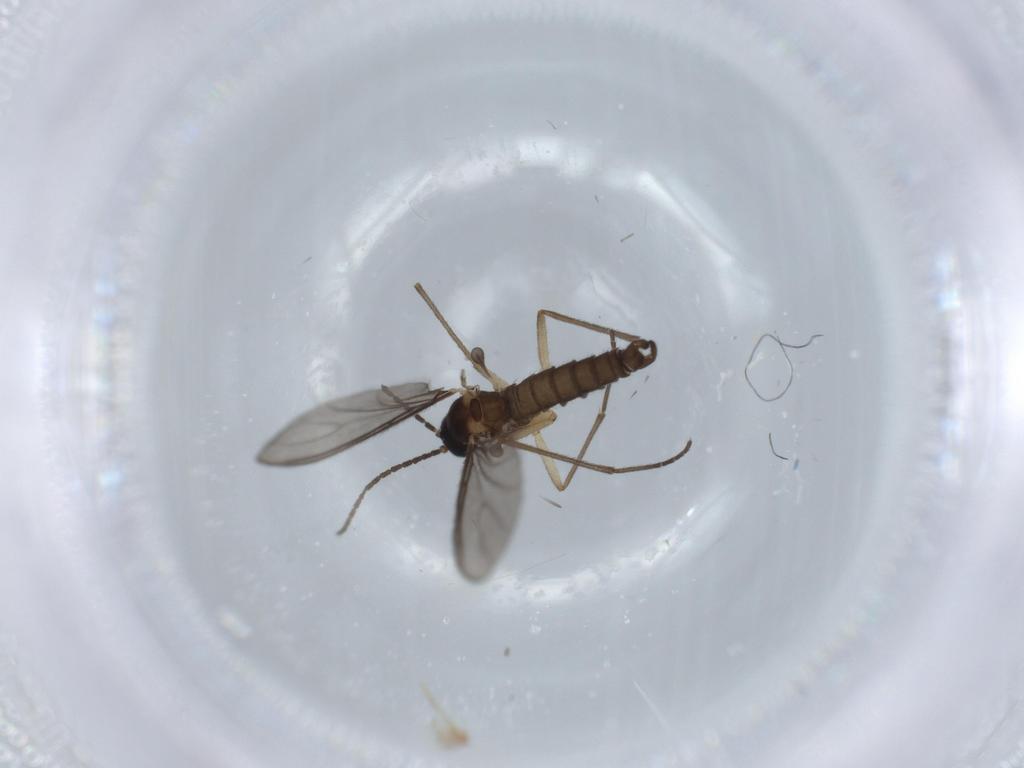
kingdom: Animalia
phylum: Arthropoda
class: Insecta
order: Diptera
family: Sciaridae
